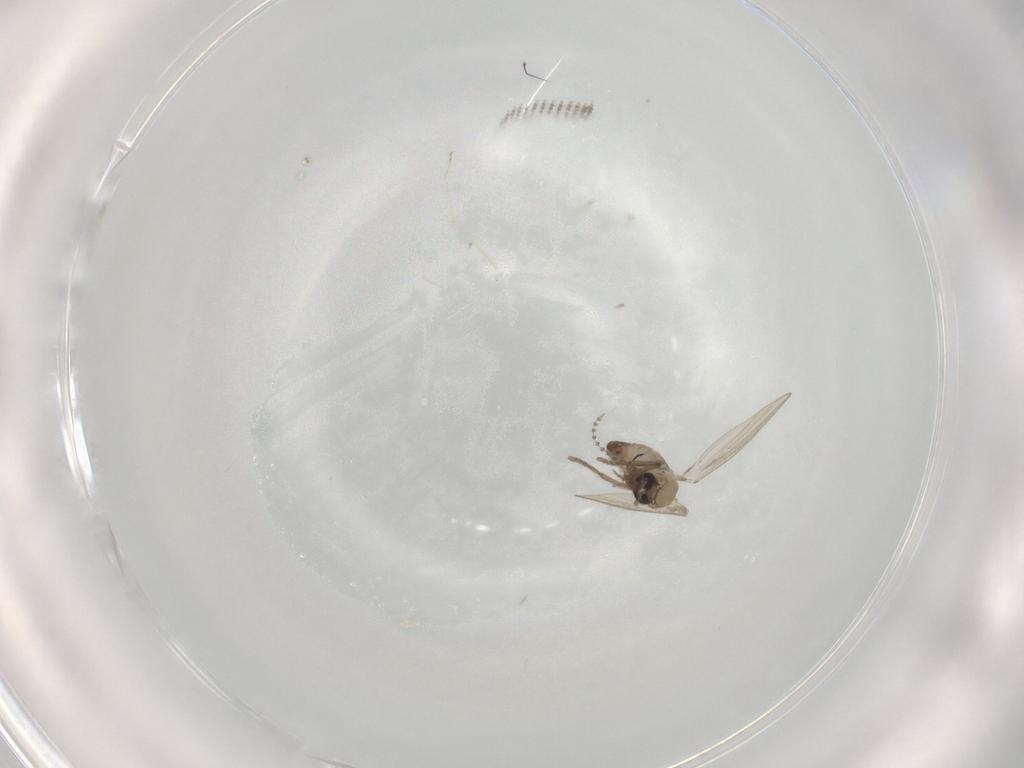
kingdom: Animalia
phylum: Arthropoda
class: Insecta
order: Diptera
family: Psychodidae
